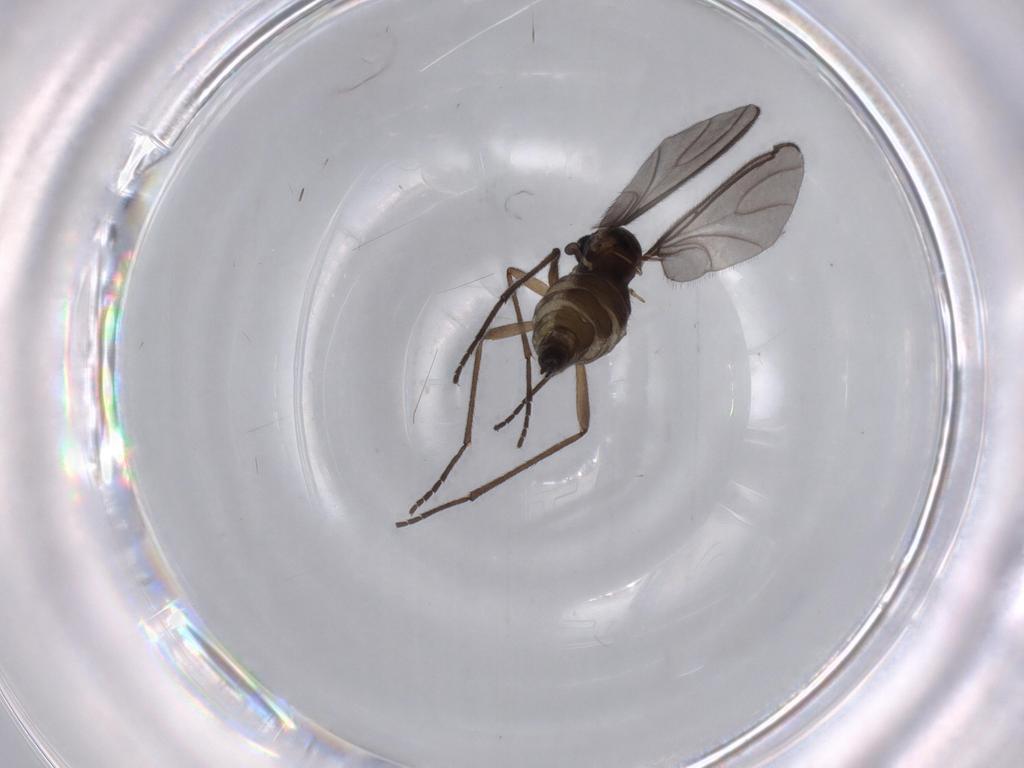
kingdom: Animalia
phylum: Arthropoda
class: Insecta
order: Diptera
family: Sciaridae
